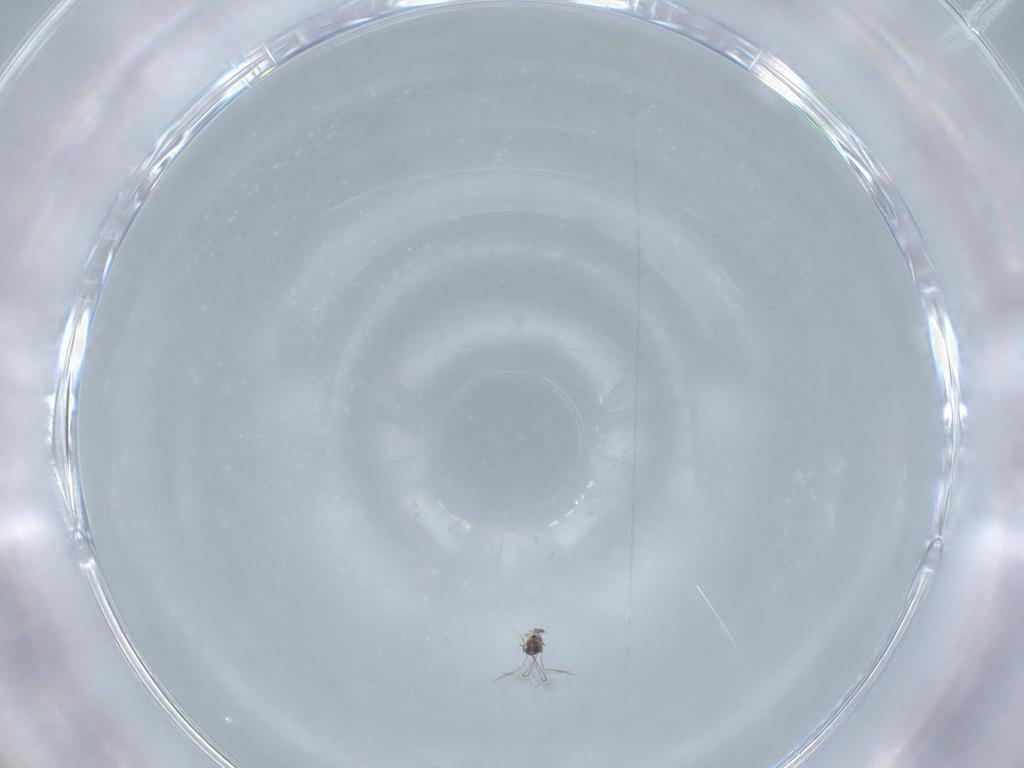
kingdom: Animalia
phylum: Arthropoda
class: Insecta
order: Hymenoptera
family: Mymaridae
